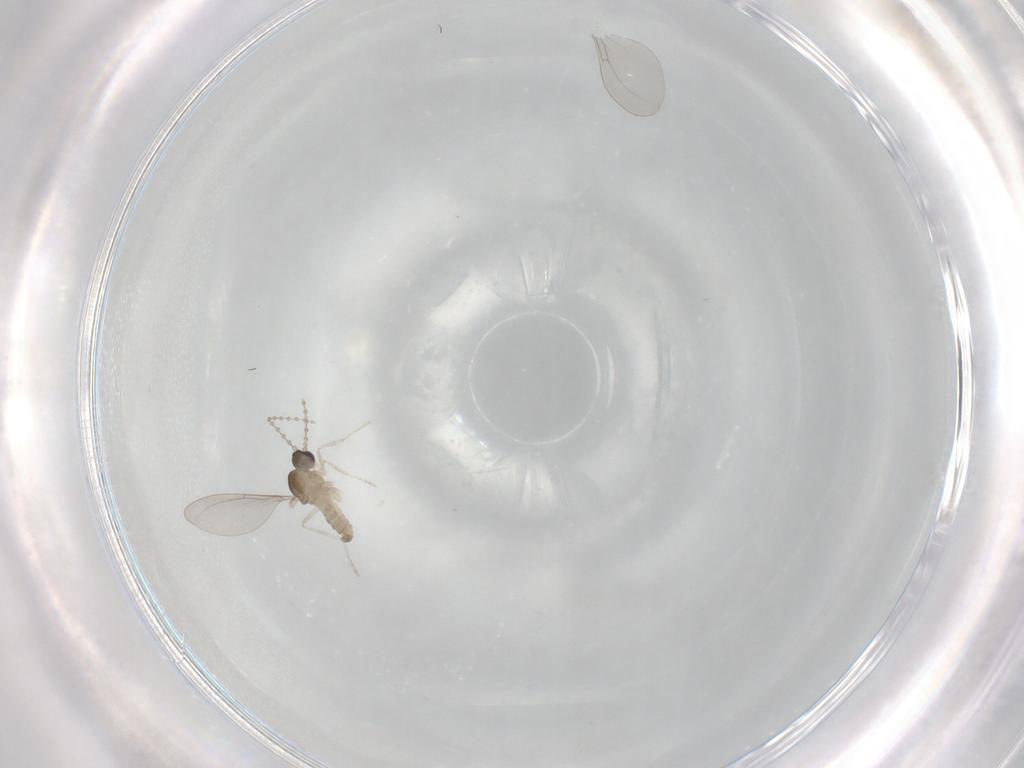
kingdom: Animalia
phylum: Arthropoda
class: Insecta
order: Diptera
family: Cecidomyiidae
